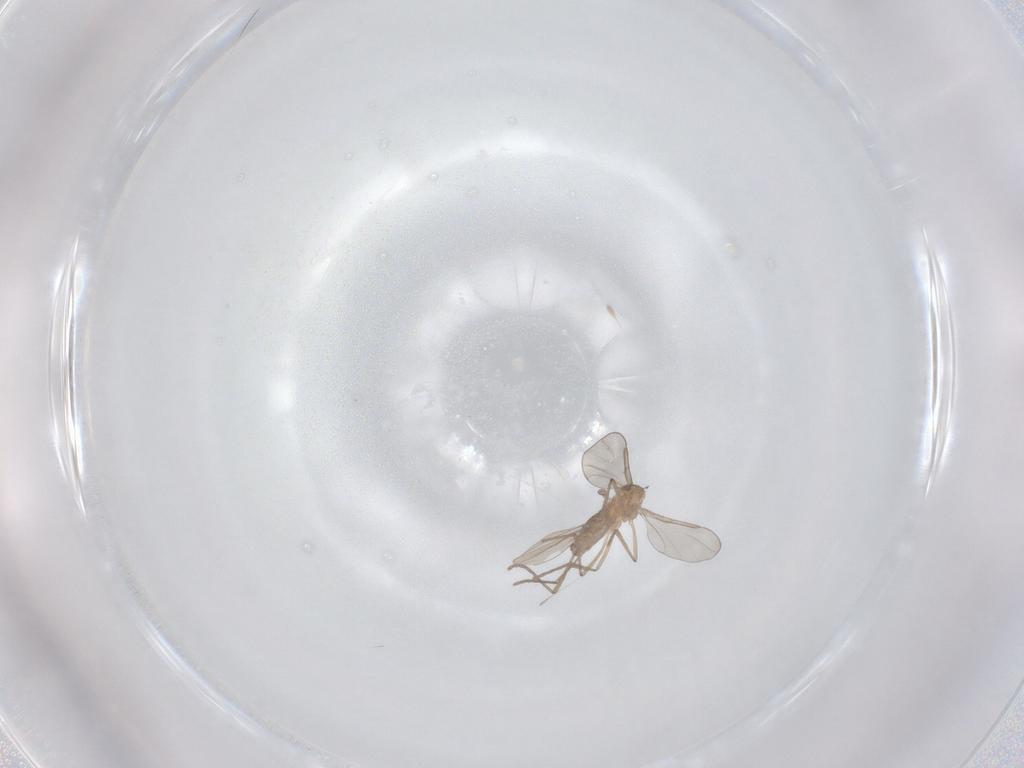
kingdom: Animalia
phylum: Arthropoda
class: Insecta
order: Diptera
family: Cecidomyiidae
